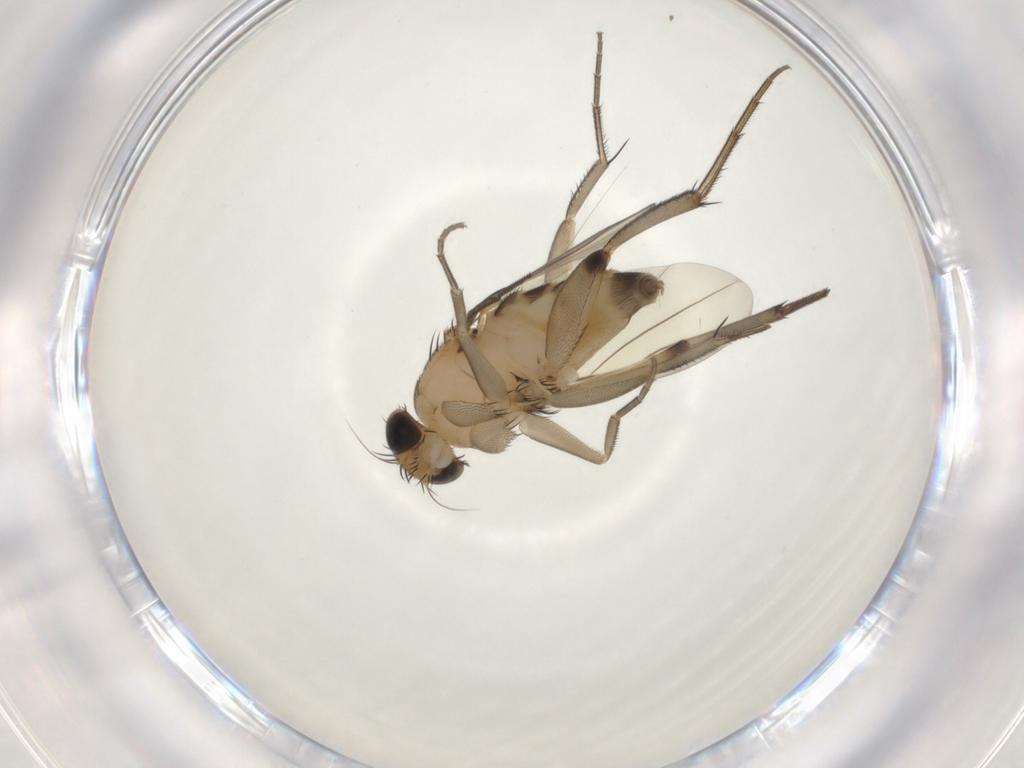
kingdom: Animalia
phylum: Arthropoda
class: Insecta
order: Diptera
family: Phoridae
